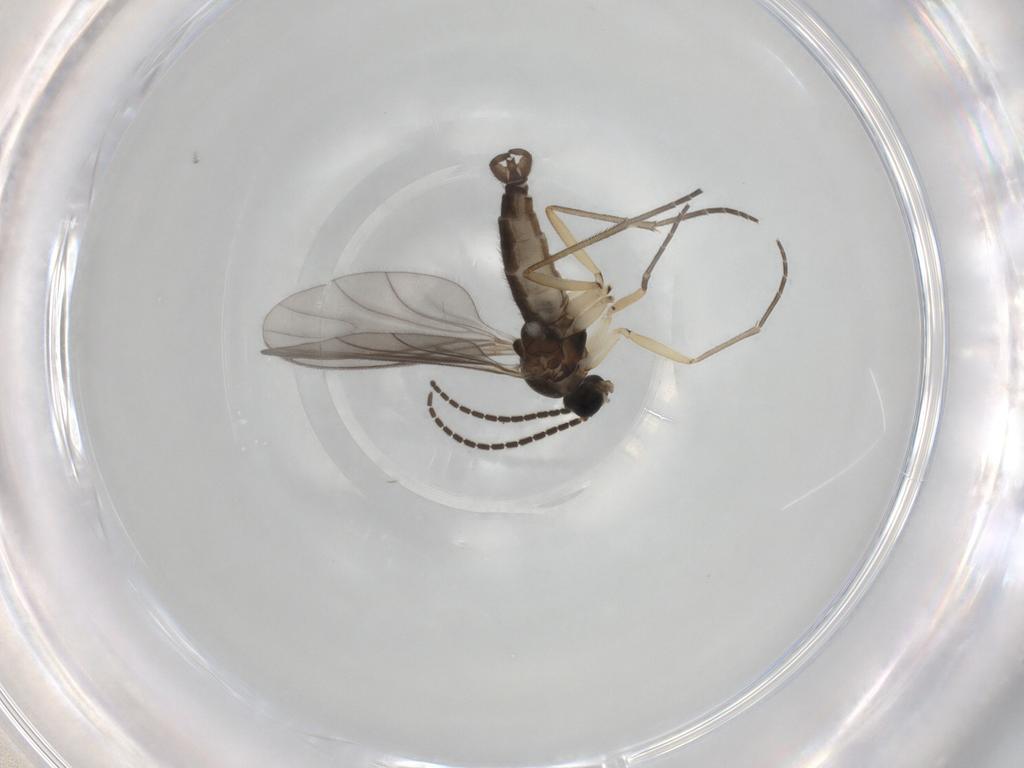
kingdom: Animalia
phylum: Arthropoda
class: Insecta
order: Diptera
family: Sciaridae
